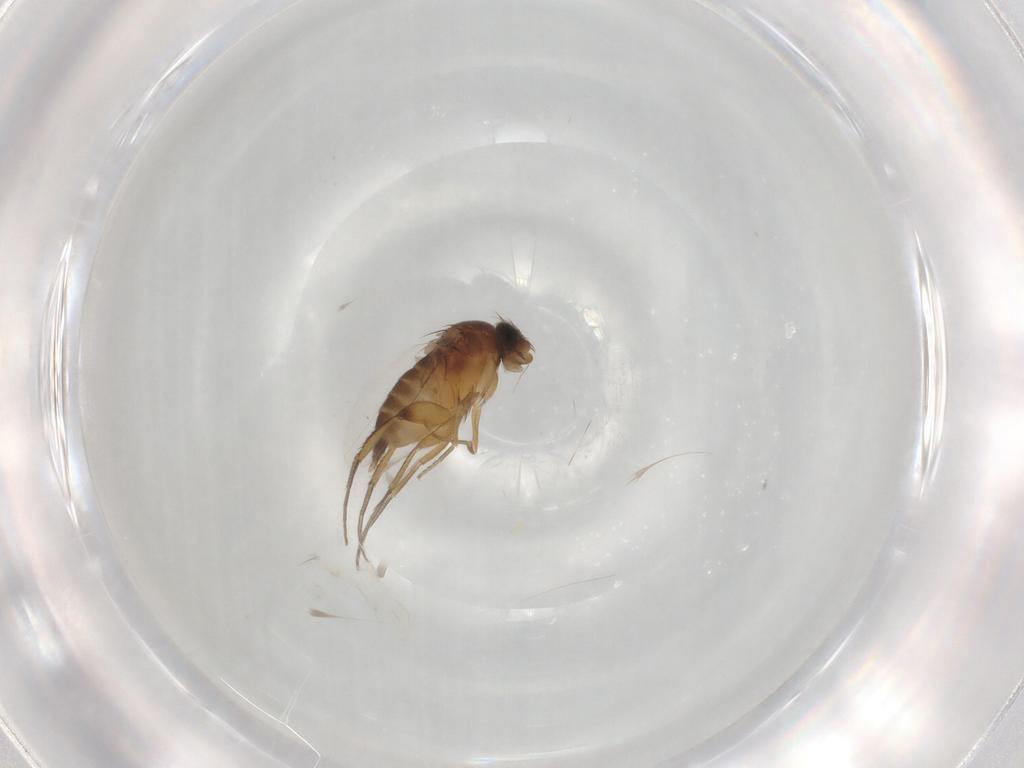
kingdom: Animalia
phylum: Arthropoda
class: Insecta
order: Diptera
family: Phoridae
